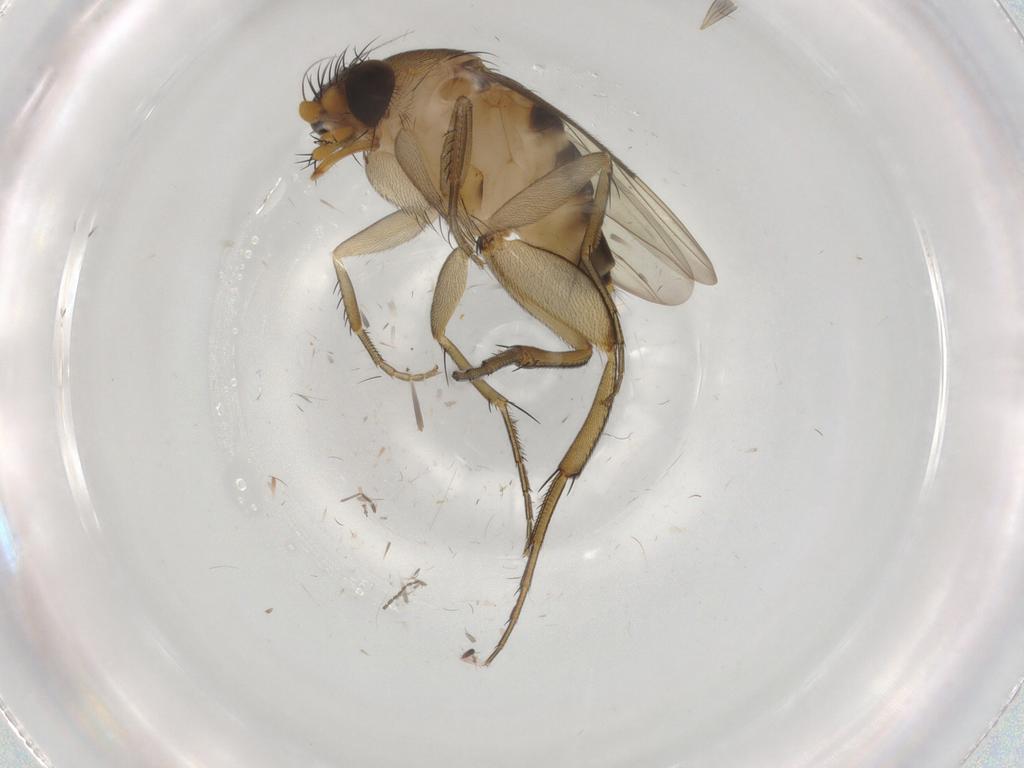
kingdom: Animalia
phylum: Arthropoda
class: Insecta
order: Diptera
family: Phoridae
